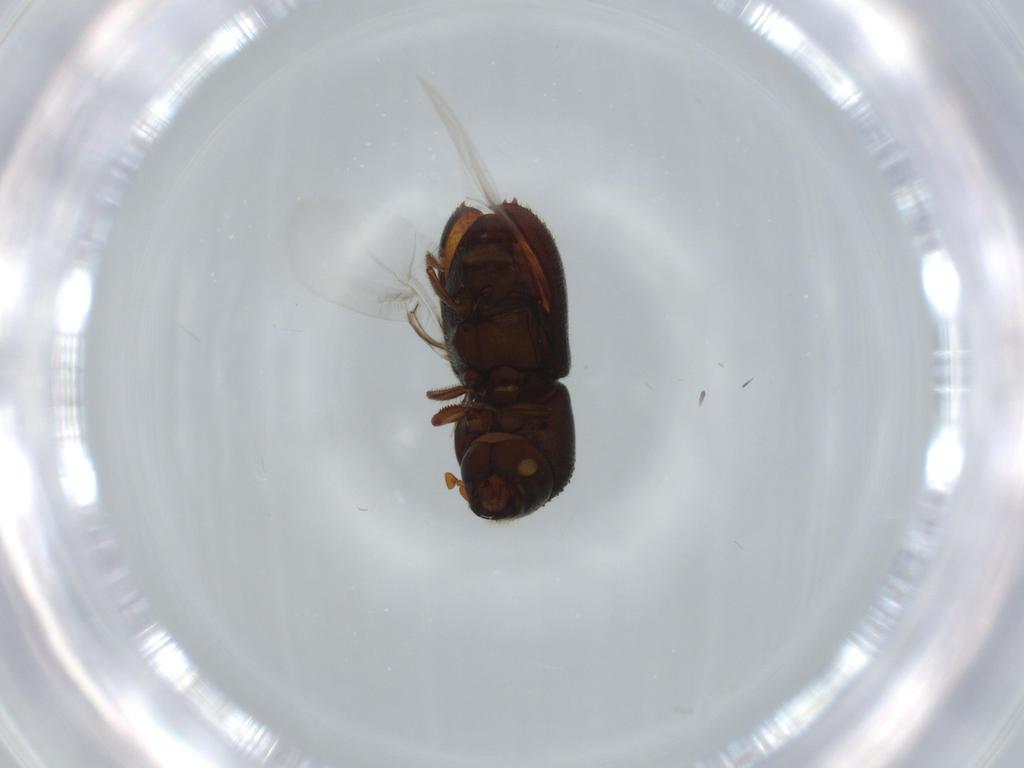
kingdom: Animalia
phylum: Arthropoda
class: Insecta
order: Coleoptera
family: Curculionidae
